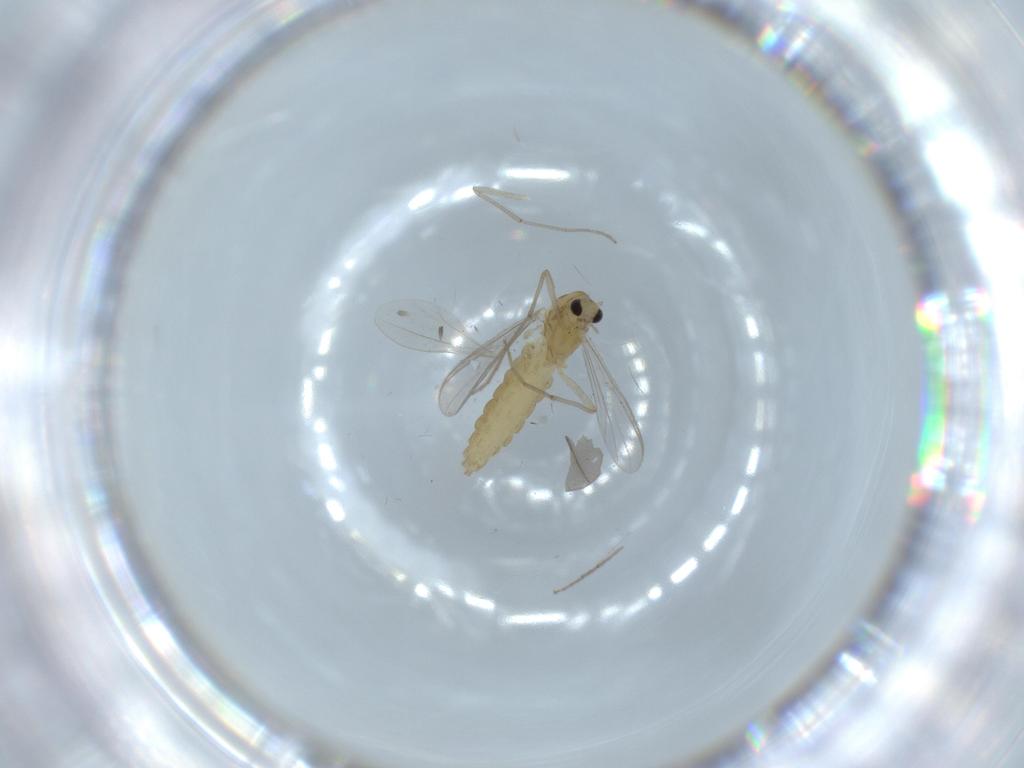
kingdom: Animalia
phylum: Arthropoda
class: Insecta
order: Diptera
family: Chironomidae
